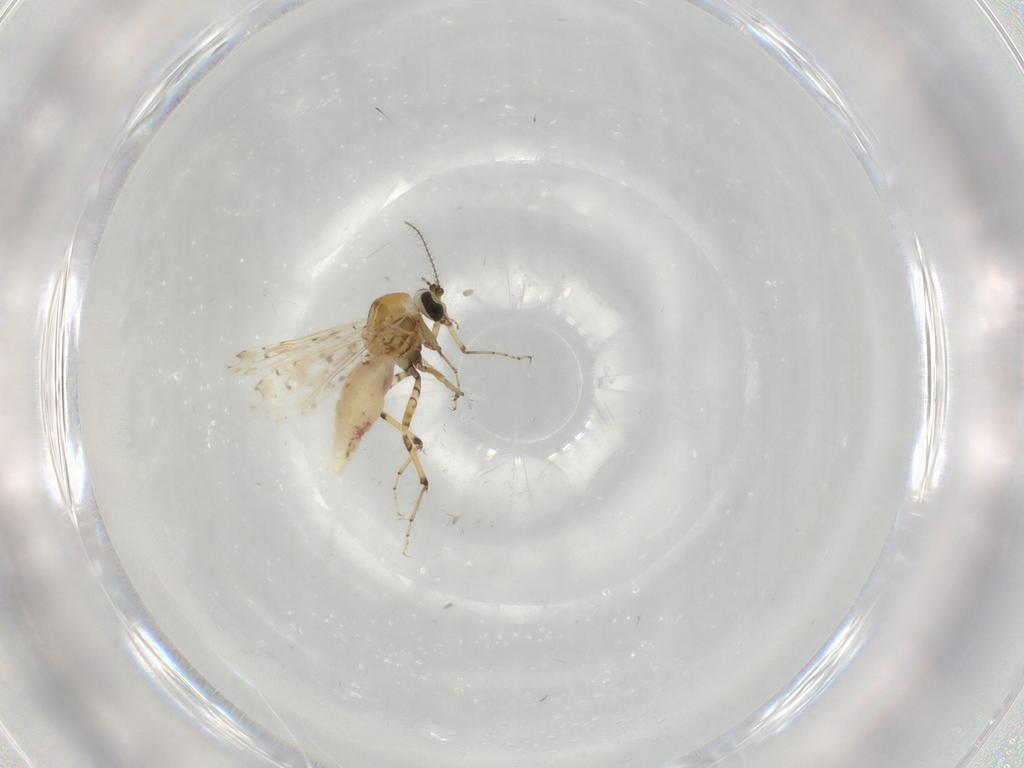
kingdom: Animalia
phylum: Arthropoda
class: Insecta
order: Diptera
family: Ceratopogonidae
